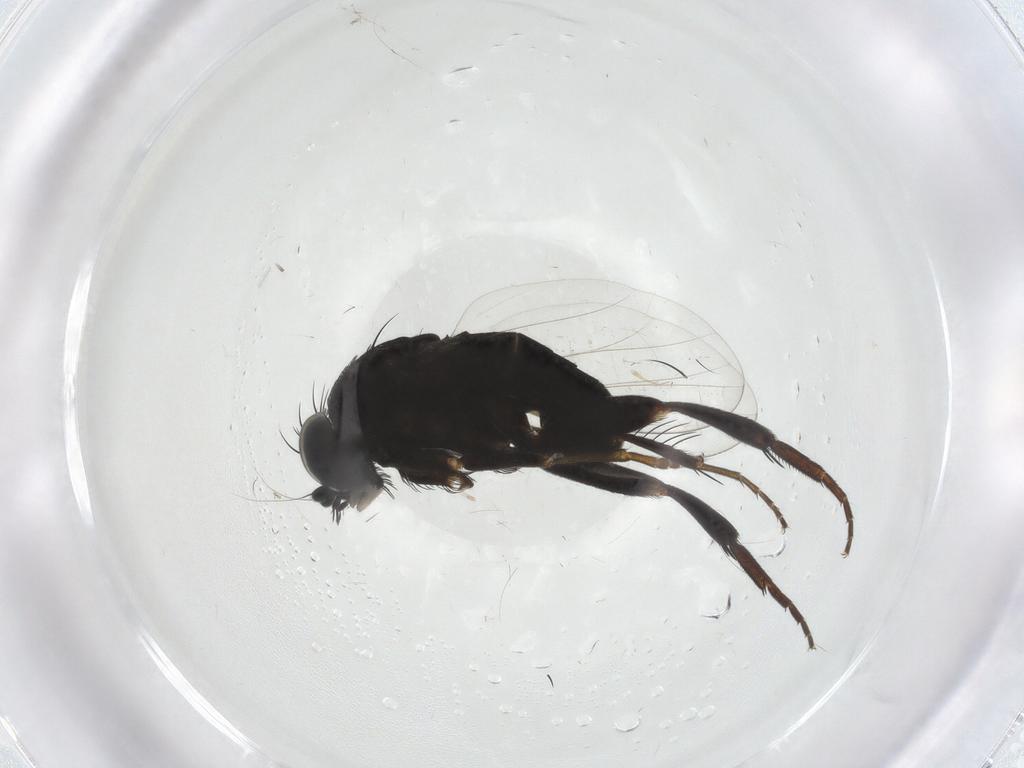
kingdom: Animalia
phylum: Arthropoda
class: Insecta
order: Diptera
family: Phoridae
